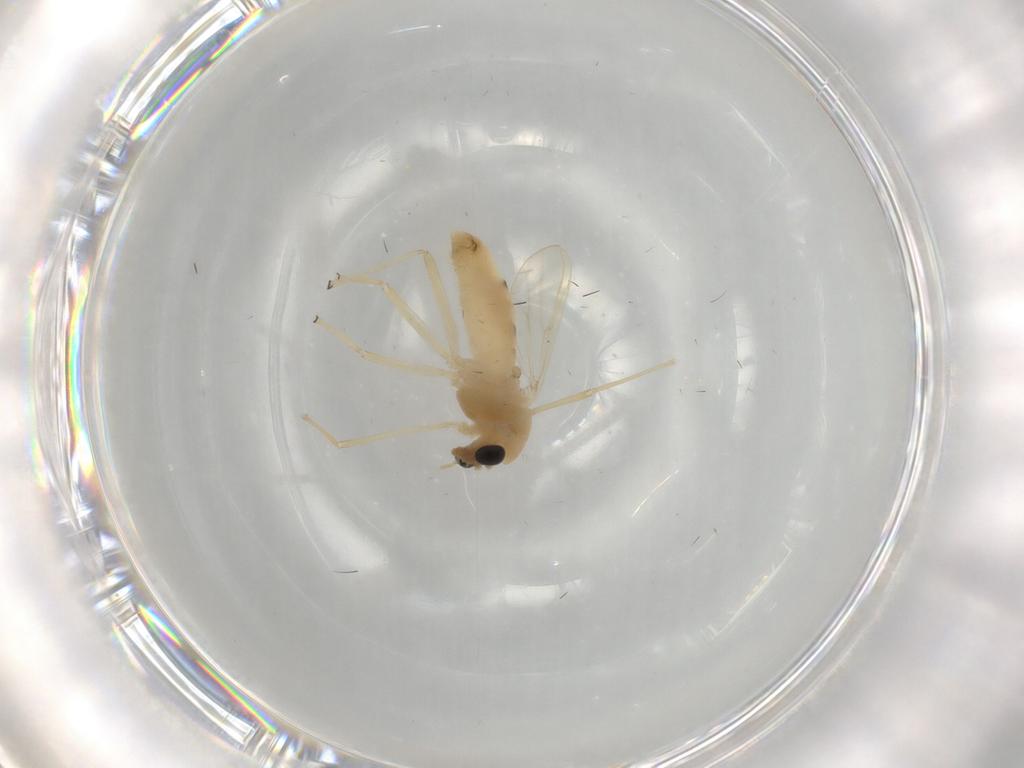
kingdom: Animalia
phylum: Arthropoda
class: Insecta
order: Diptera
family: Chironomidae
